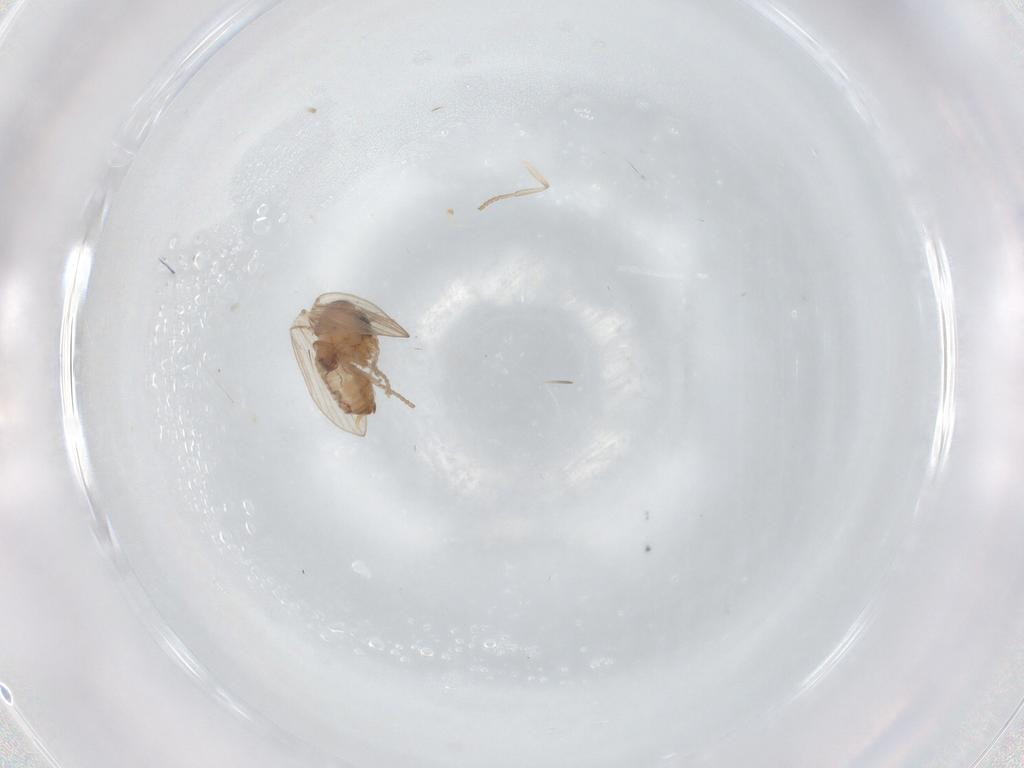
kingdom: Animalia
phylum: Arthropoda
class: Insecta
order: Diptera
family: Psychodidae
